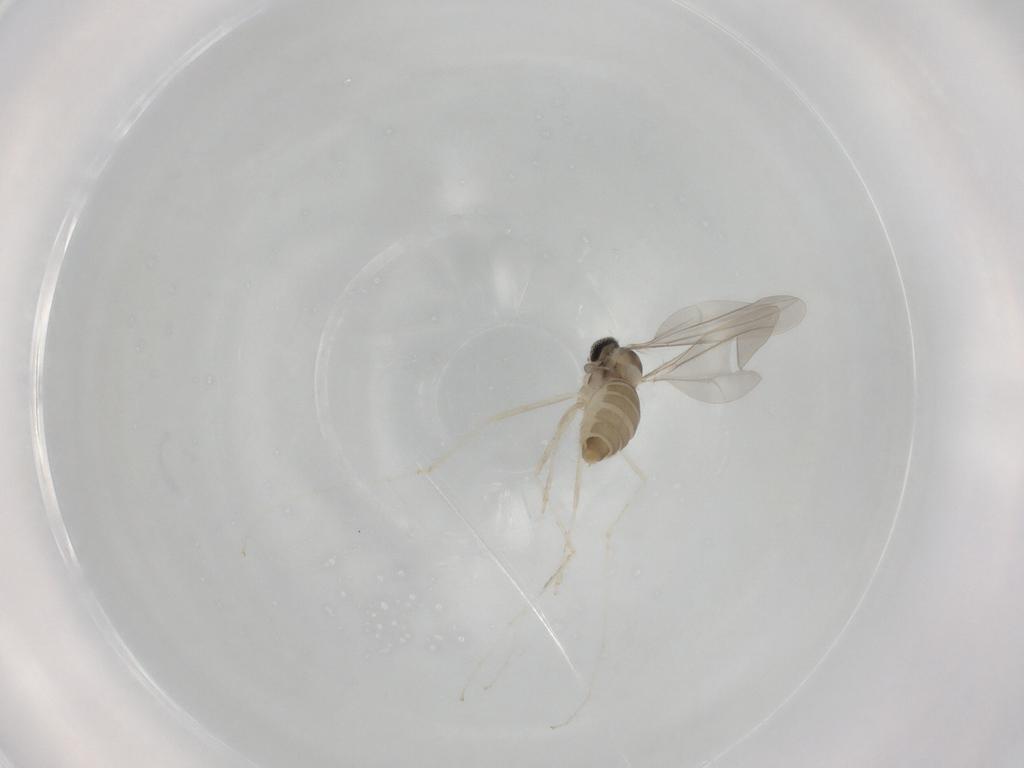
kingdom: Animalia
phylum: Arthropoda
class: Insecta
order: Diptera
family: Cecidomyiidae
